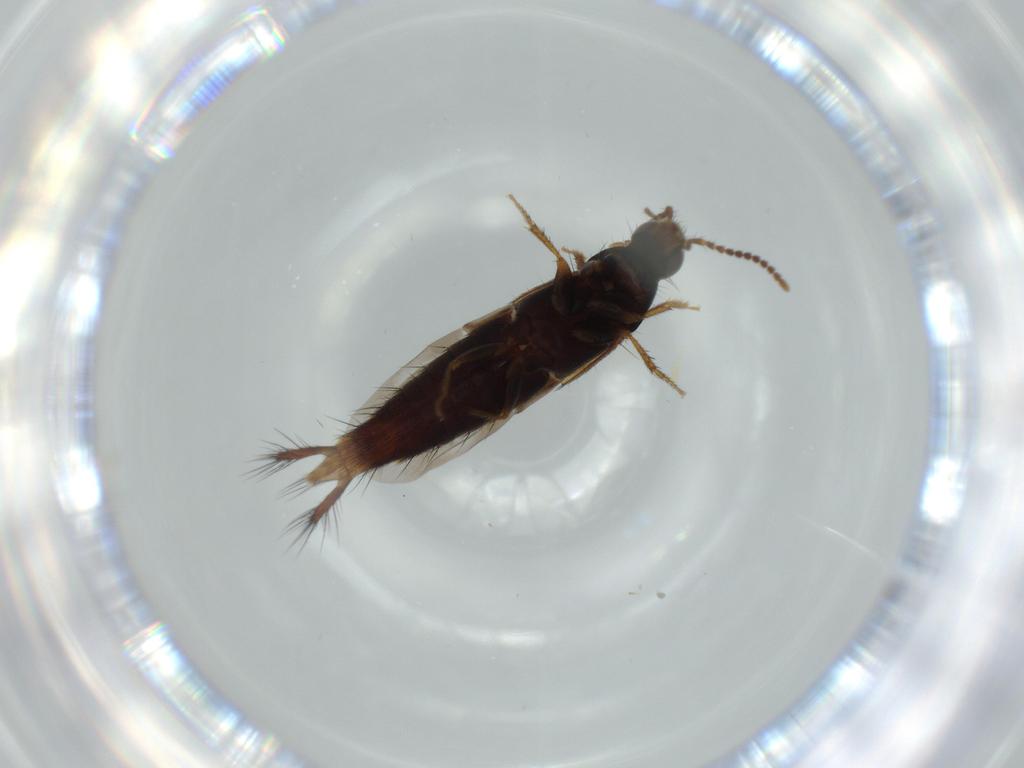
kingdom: Animalia
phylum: Arthropoda
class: Insecta
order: Coleoptera
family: Staphylinidae
